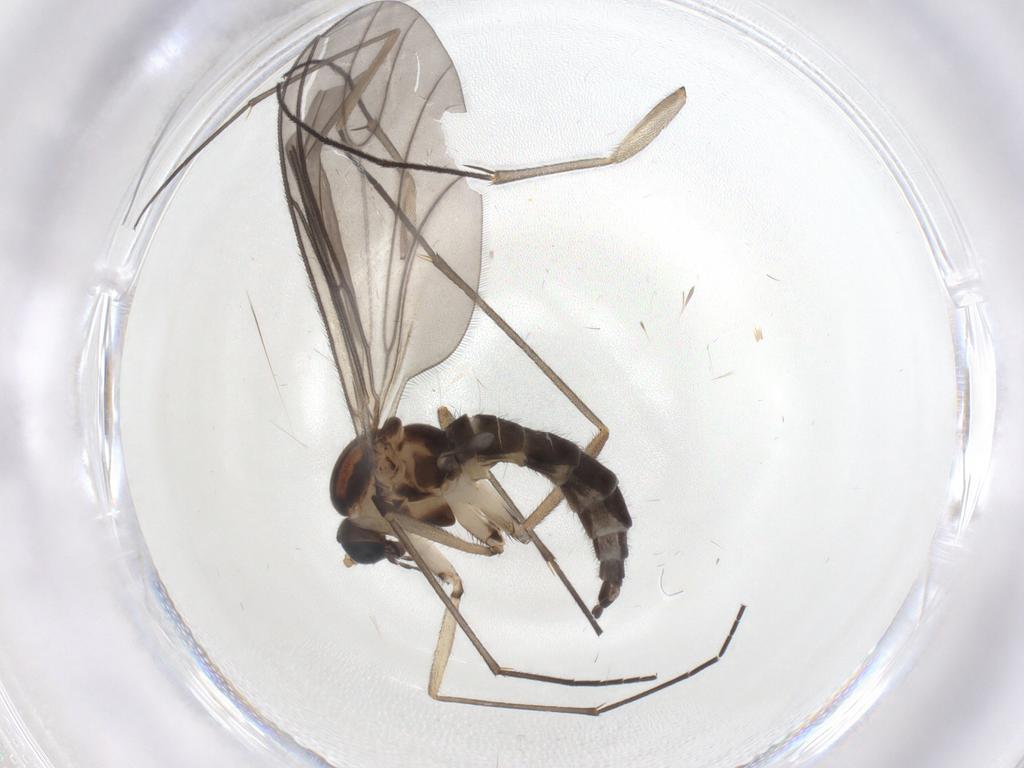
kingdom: Animalia
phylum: Arthropoda
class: Insecta
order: Diptera
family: Sciaridae
